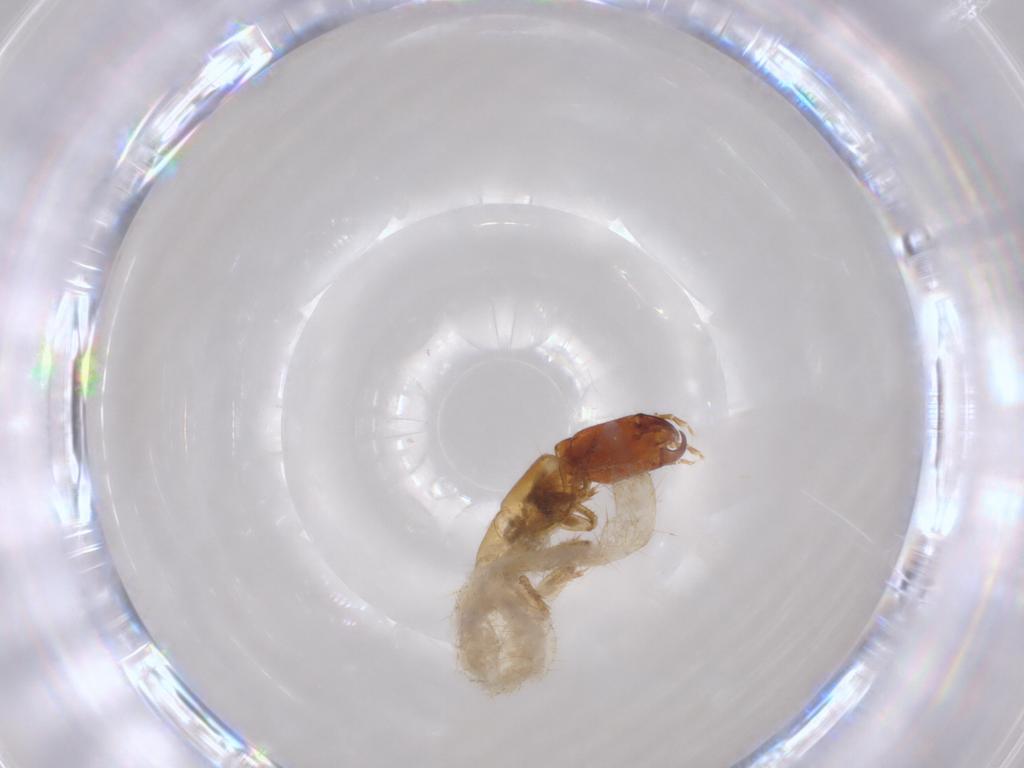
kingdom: Animalia
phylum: Arthropoda
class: Insecta
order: Coleoptera
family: Staphylinidae
